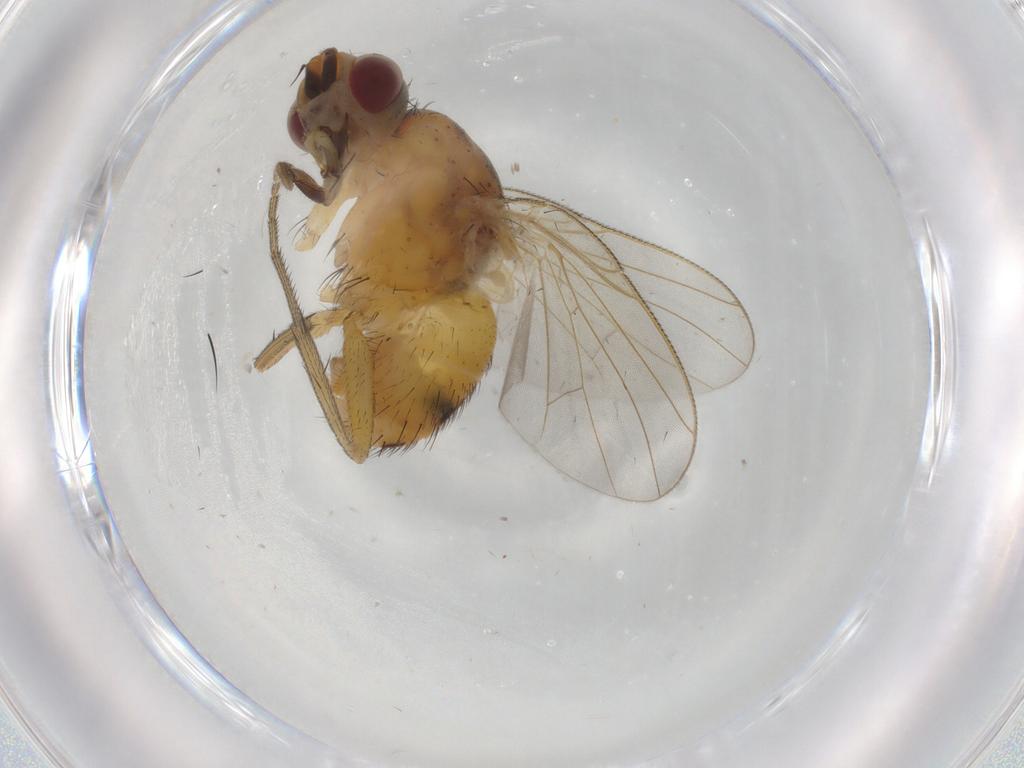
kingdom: Animalia
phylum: Arthropoda
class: Insecta
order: Diptera
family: Muscidae
